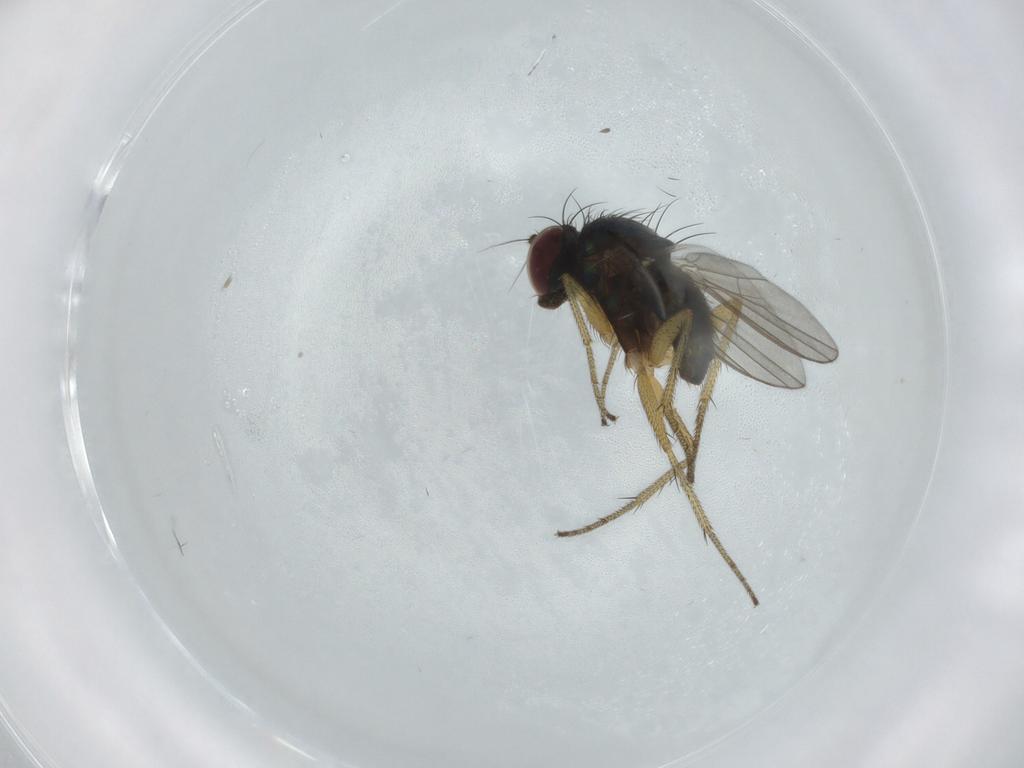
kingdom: Animalia
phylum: Arthropoda
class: Insecta
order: Diptera
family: Dolichopodidae
